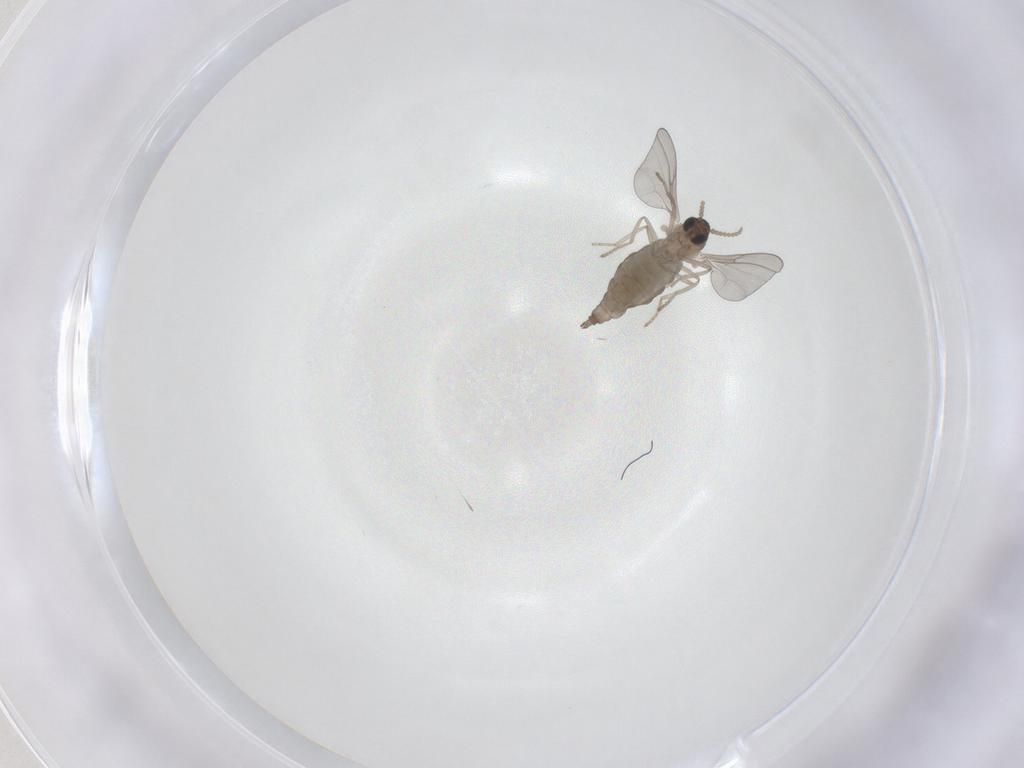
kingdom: Animalia
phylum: Arthropoda
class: Insecta
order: Diptera
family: Cecidomyiidae
